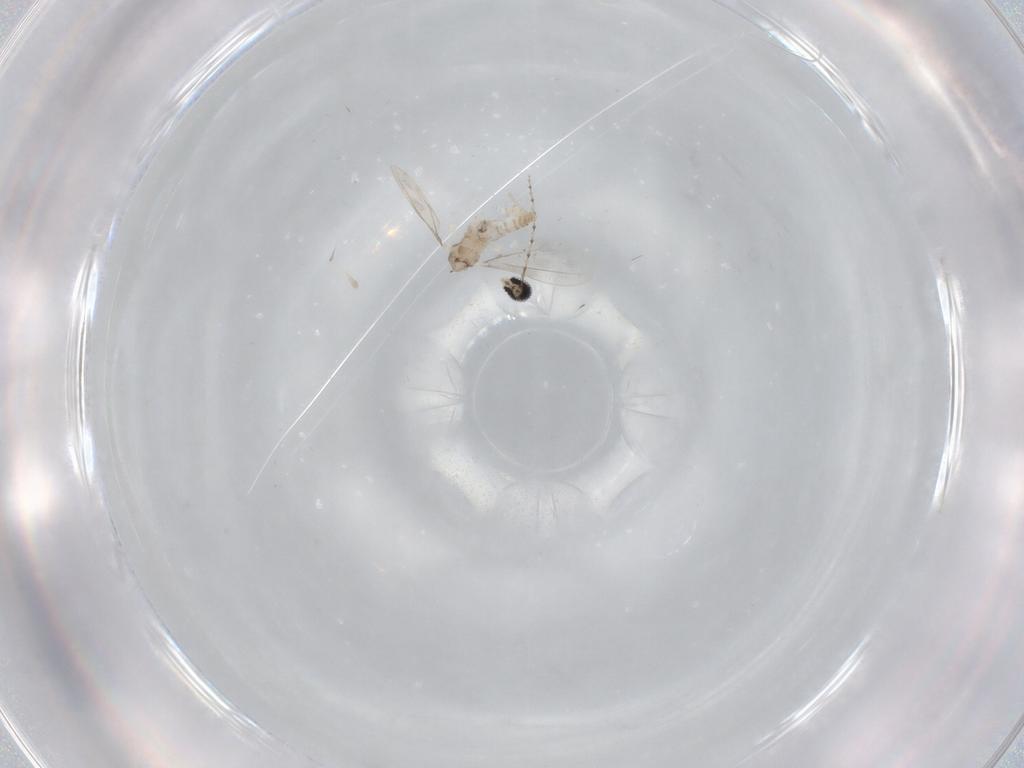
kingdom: Animalia
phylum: Arthropoda
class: Insecta
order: Diptera
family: Cecidomyiidae
